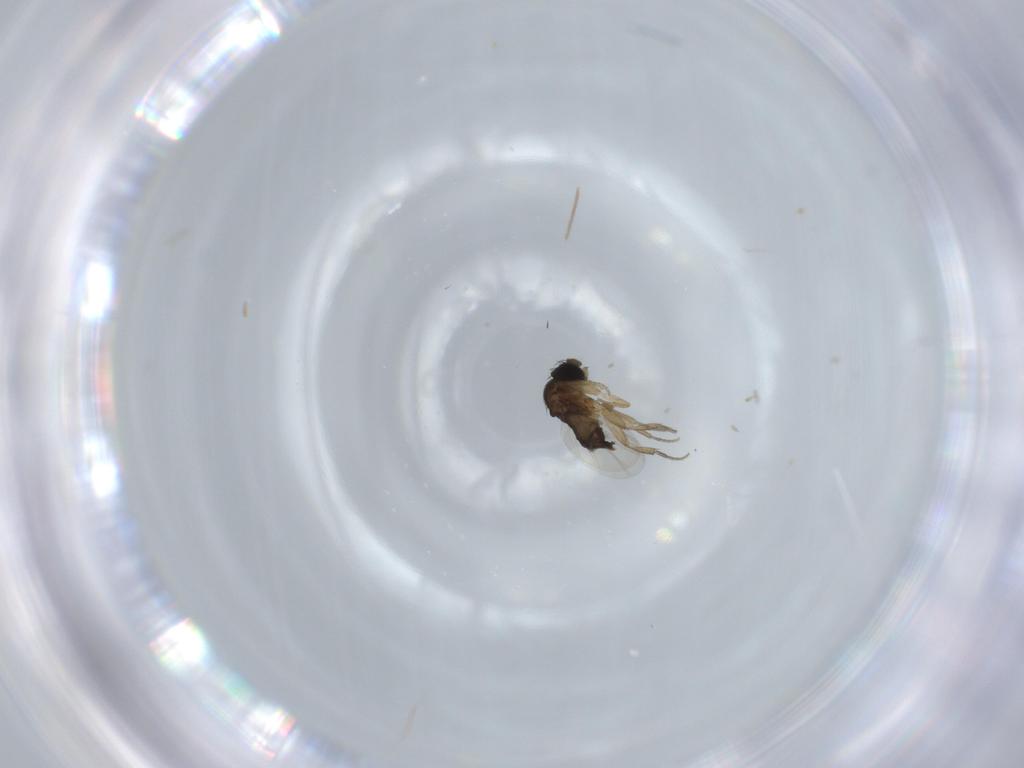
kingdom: Animalia
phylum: Arthropoda
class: Insecta
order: Diptera
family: Phoridae
